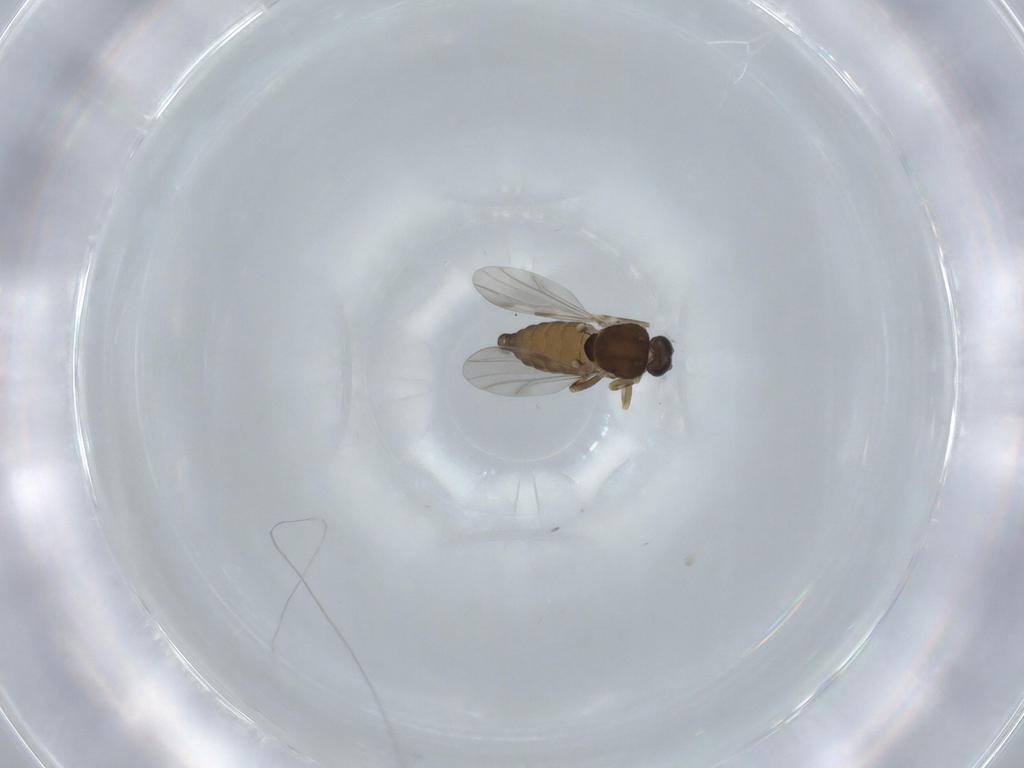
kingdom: Animalia
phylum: Arthropoda
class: Insecta
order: Diptera
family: Ceratopogonidae
